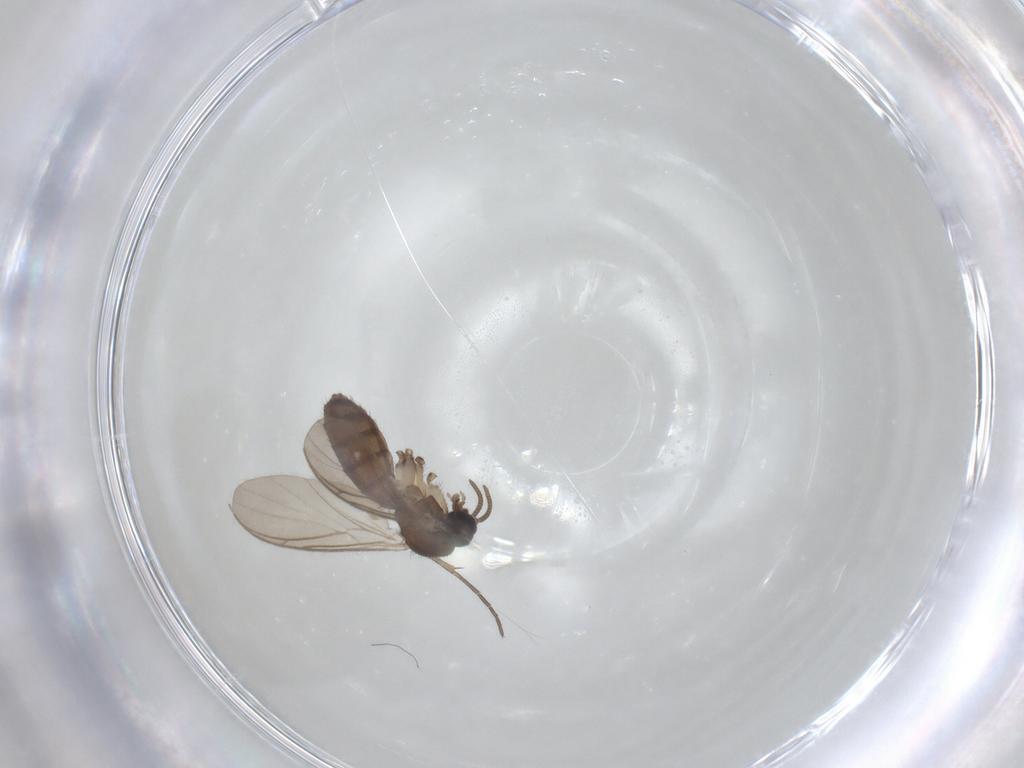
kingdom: Animalia
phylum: Arthropoda
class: Insecta
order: Diptera
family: Keroplatidae
